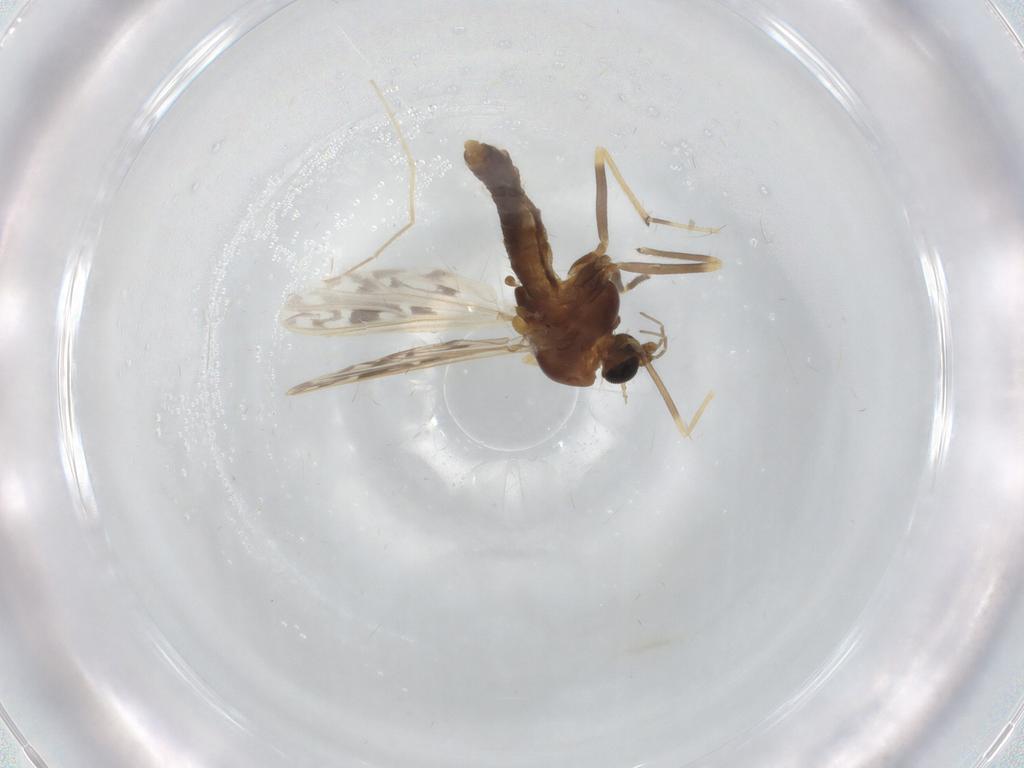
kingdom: Animalia
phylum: Arthropoda
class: Insecta
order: Diptera
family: Chironomidae
